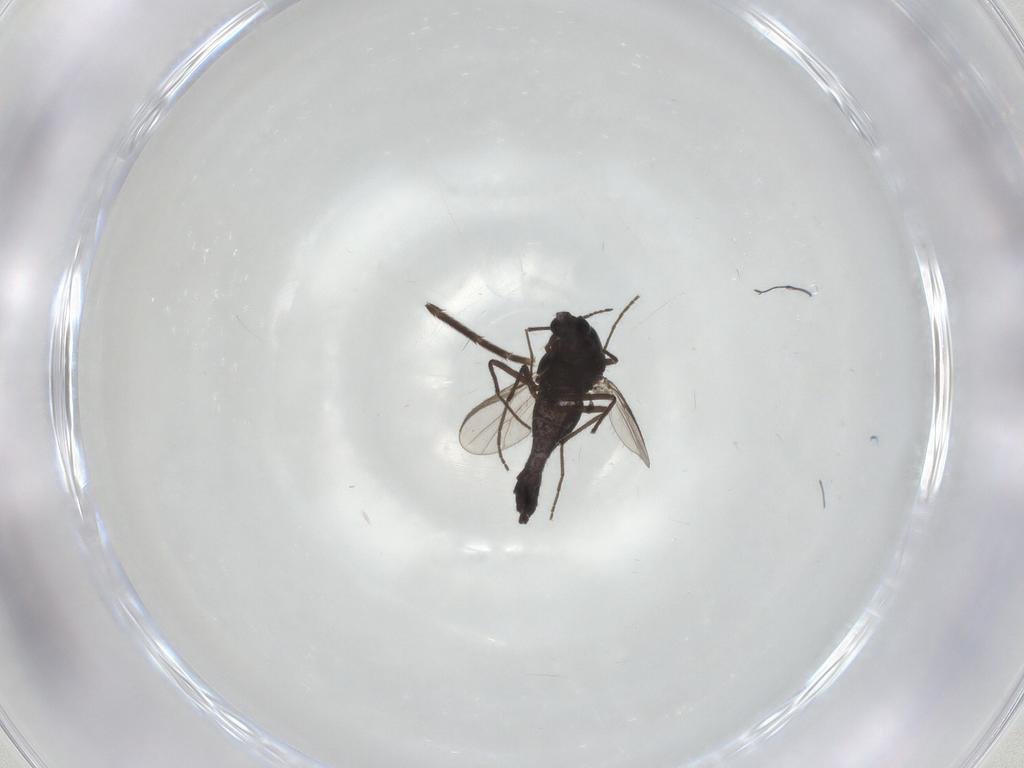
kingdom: Animalia
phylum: Arthropoda
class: Insecta
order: Diptera
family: Chironomidae
